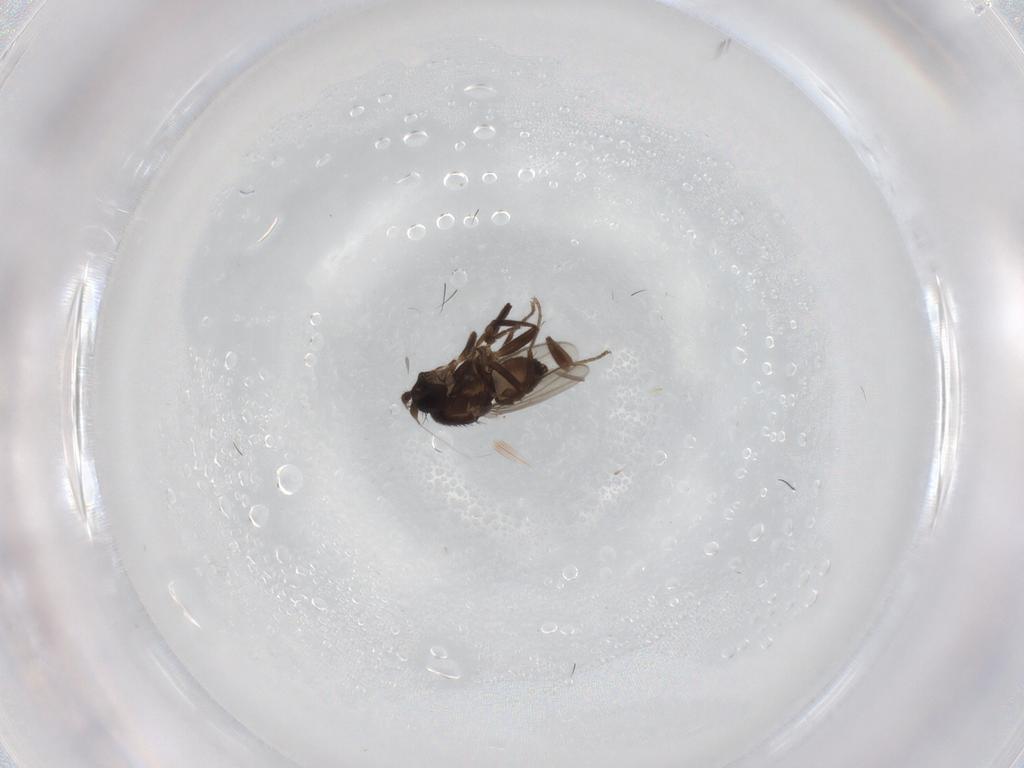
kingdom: Animalia
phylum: Arthropoda
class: Insecta
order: Diptera
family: Sphaeroceridae
